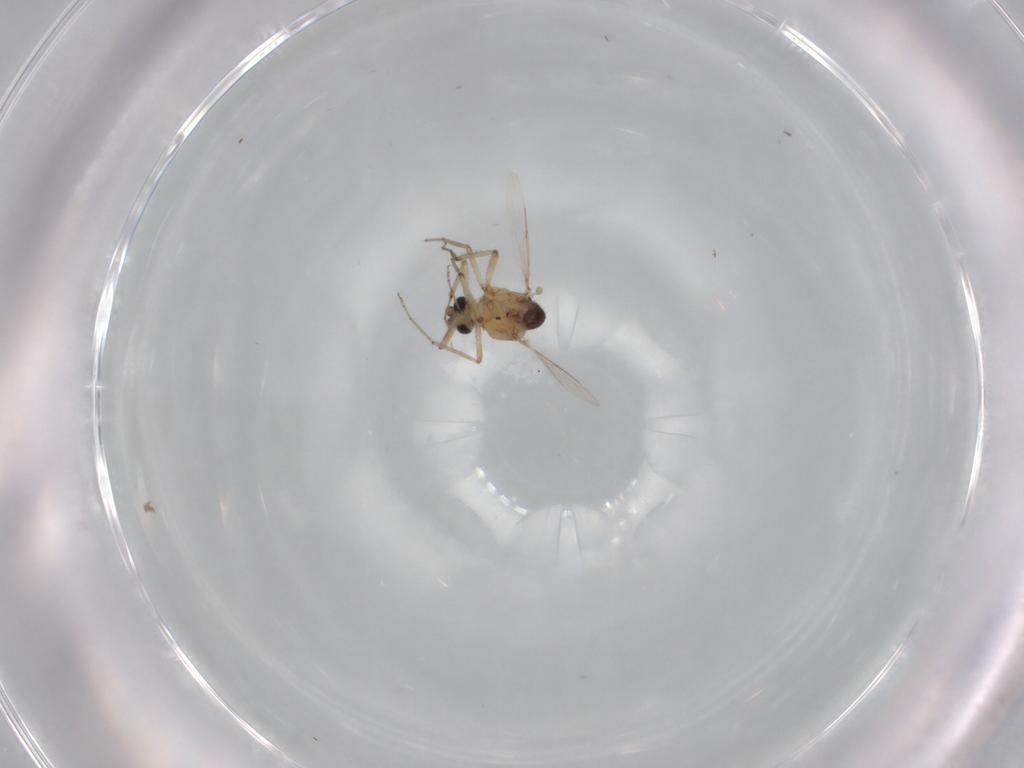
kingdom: Animalia
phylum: Arthropoda
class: Insecta
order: Diptera
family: Ceratopogonidae
